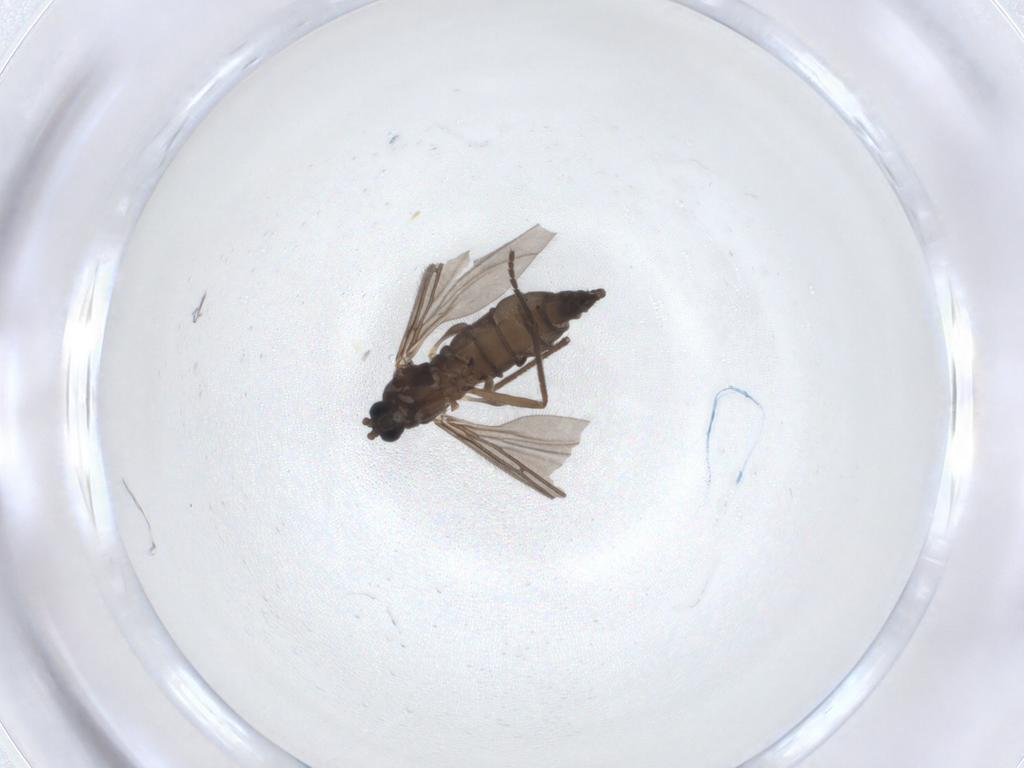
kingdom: Animalia
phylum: Arthropoda
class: Insecta
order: Diptera
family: Sciaridae
